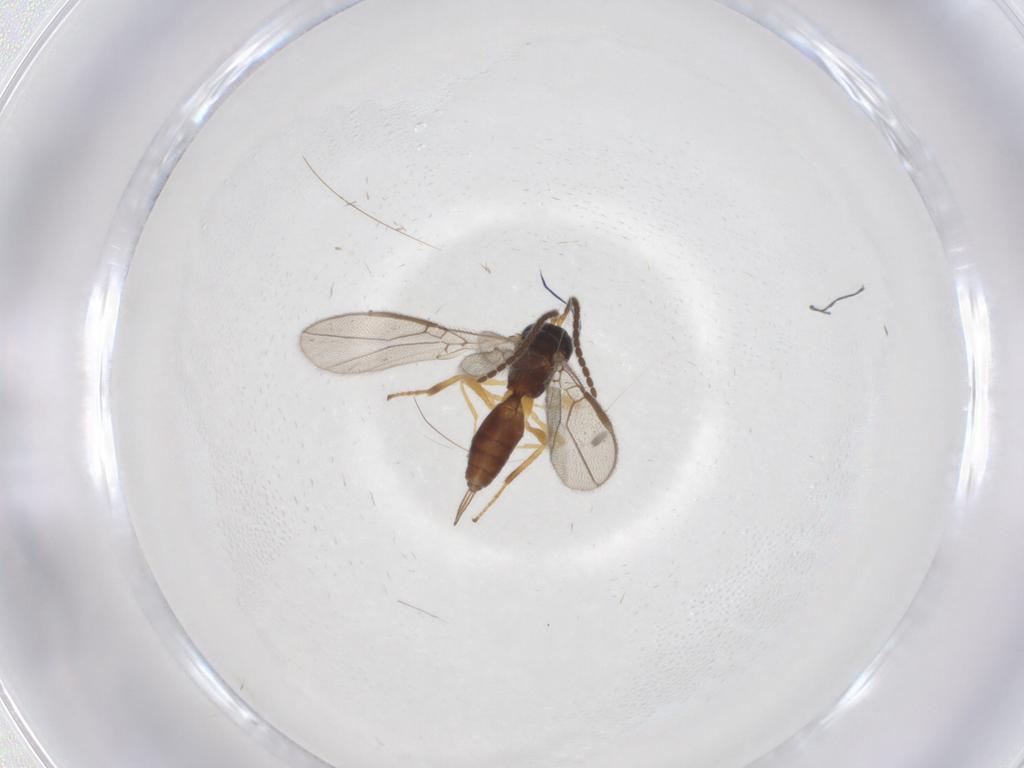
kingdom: Animalia
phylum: Arthropoda
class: Insecta
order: Hymenoptera
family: Braconidae
